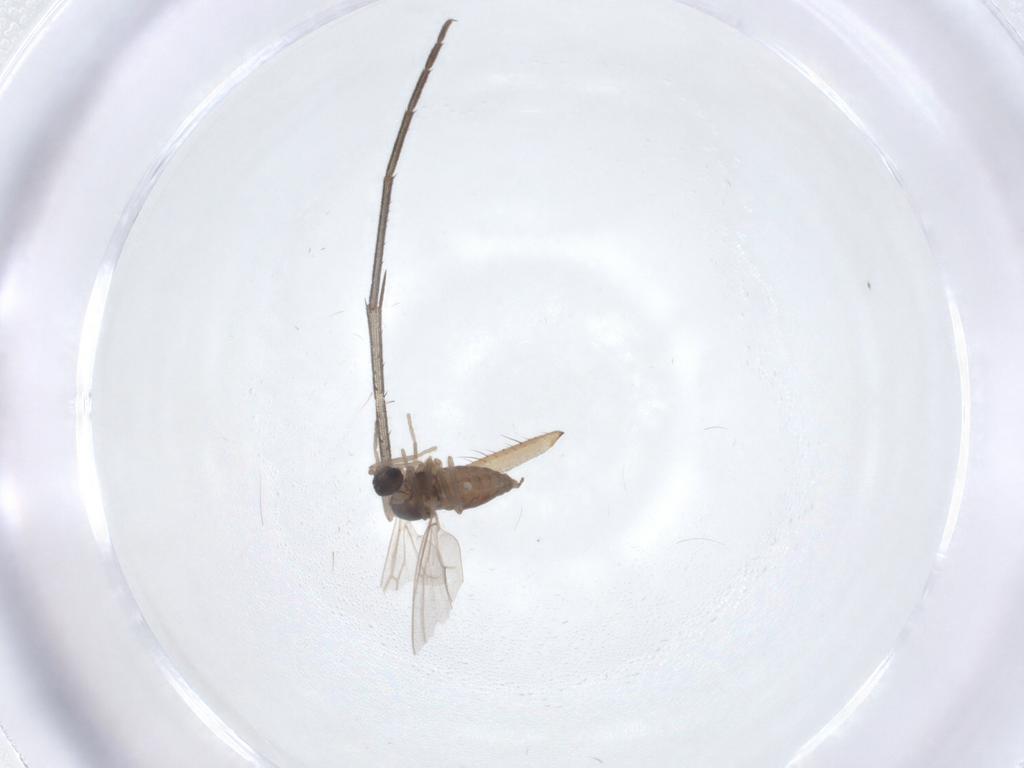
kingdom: Animalia
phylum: Arthropoda
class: Insecta
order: Diptera
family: Cecidomyiidae
